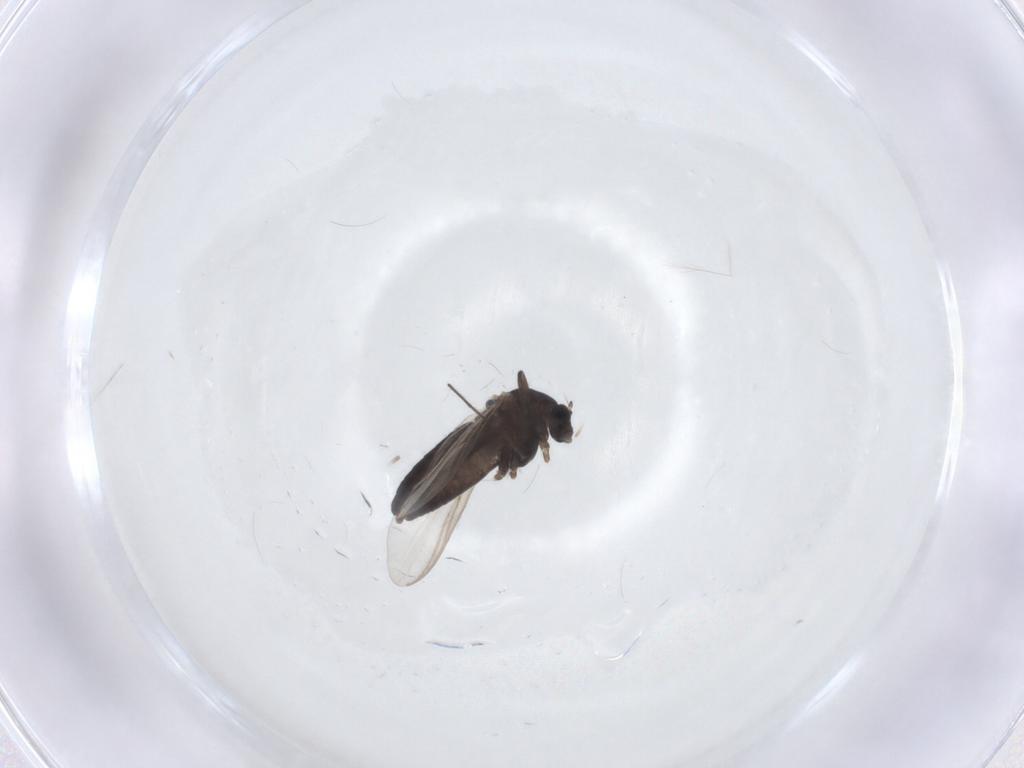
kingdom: Animalia
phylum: Arthropoda
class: Insecta
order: Diptera
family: Chironomidae
